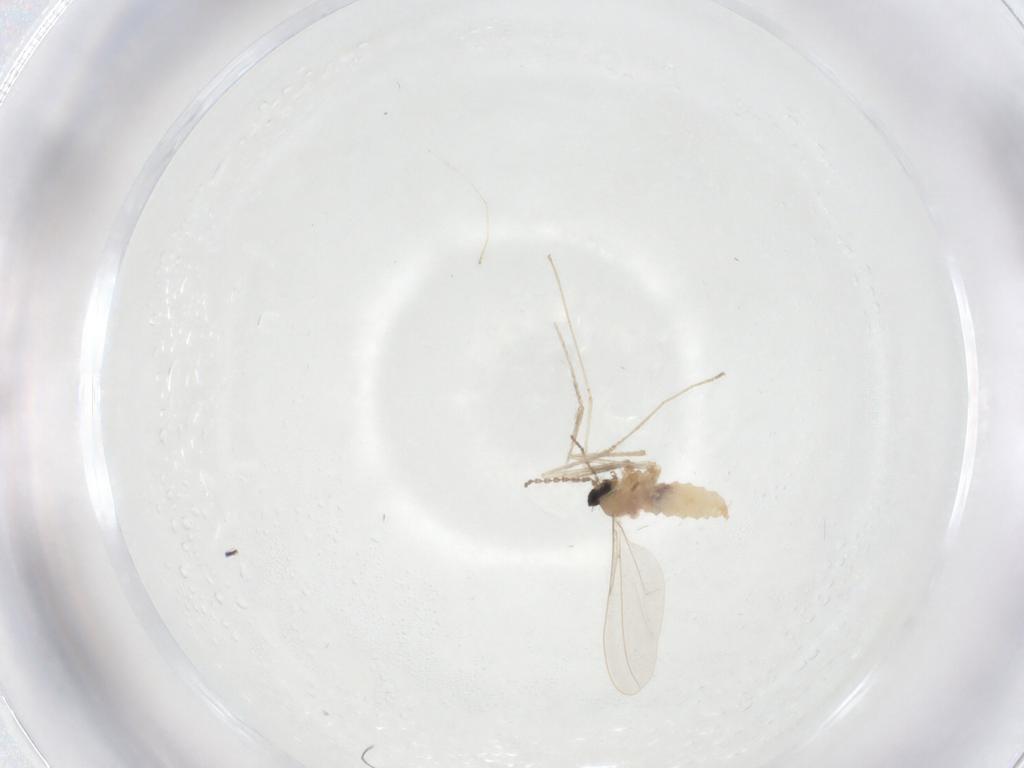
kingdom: Animalia
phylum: Arthropoda
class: Insecta
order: Diptera
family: Cecidomyiidae
